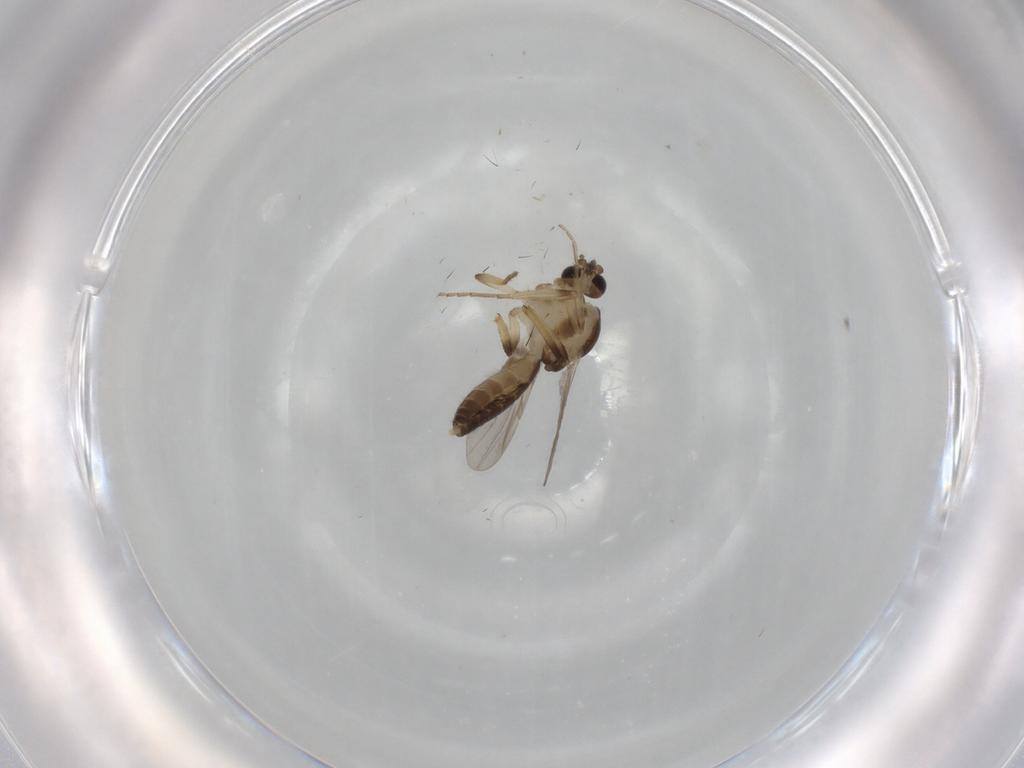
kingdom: Animalia
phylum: Arthropoda
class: Insecta
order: Diptera
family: Ceratopogonidae
